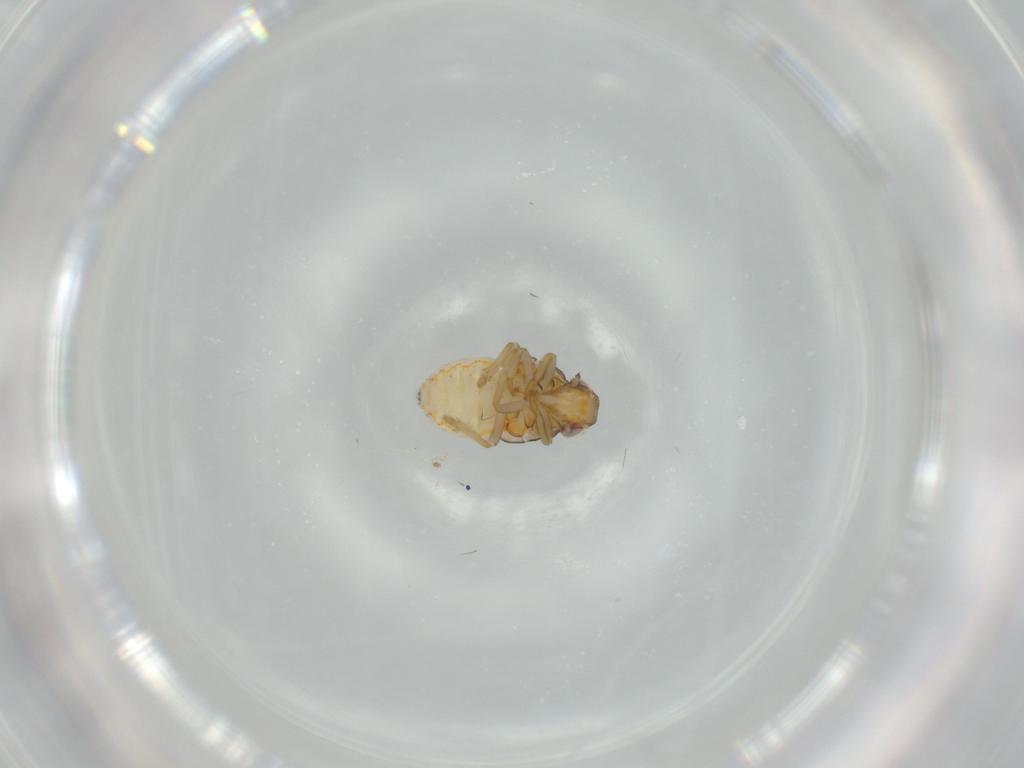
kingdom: Animalia
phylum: Arthropoda
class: Insecta
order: Hemiptera
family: Issidae
